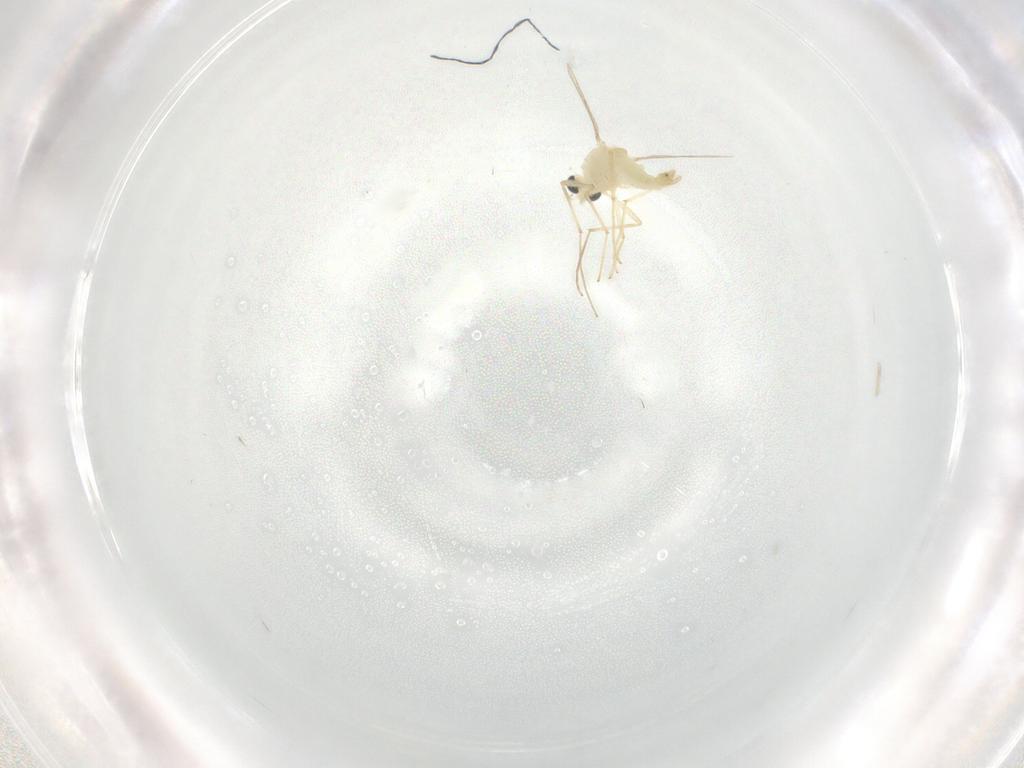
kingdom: Animalia
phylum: Arthropoda
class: Insecta
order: Diptera
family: Chironomidae
